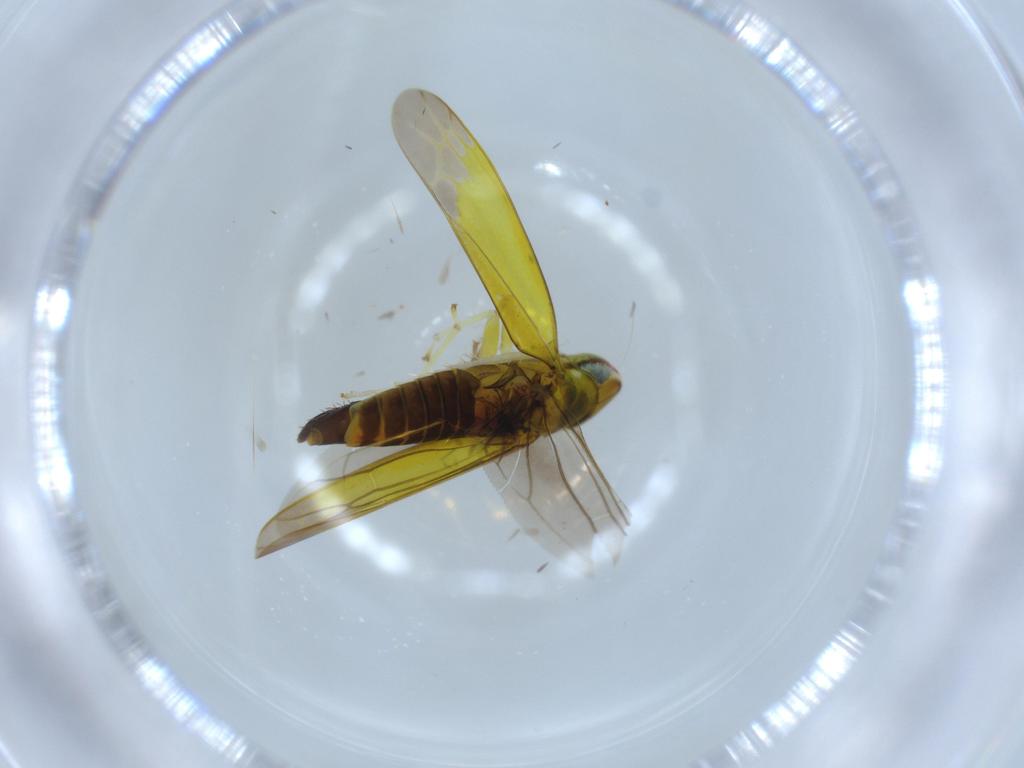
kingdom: Animalia
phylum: Arthropoda
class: Insecta
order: Hemiptera
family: Cicadellidae
